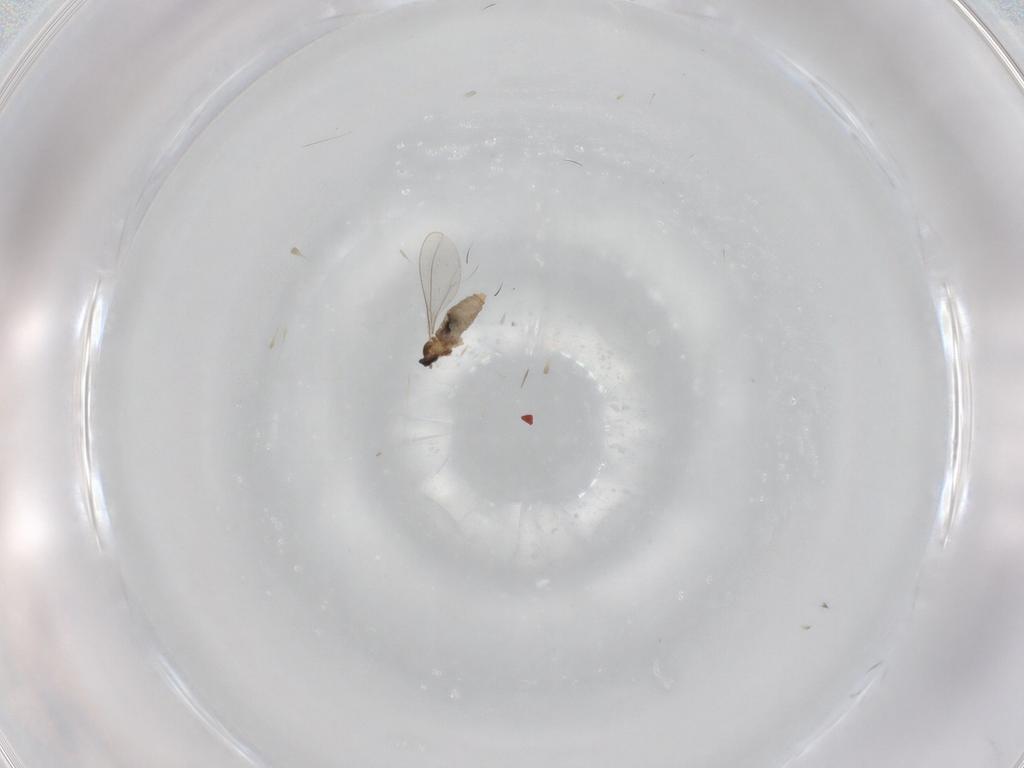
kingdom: Animalia
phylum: Arthropoda
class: Insecta
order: Diptera
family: Cecidomyiidae
